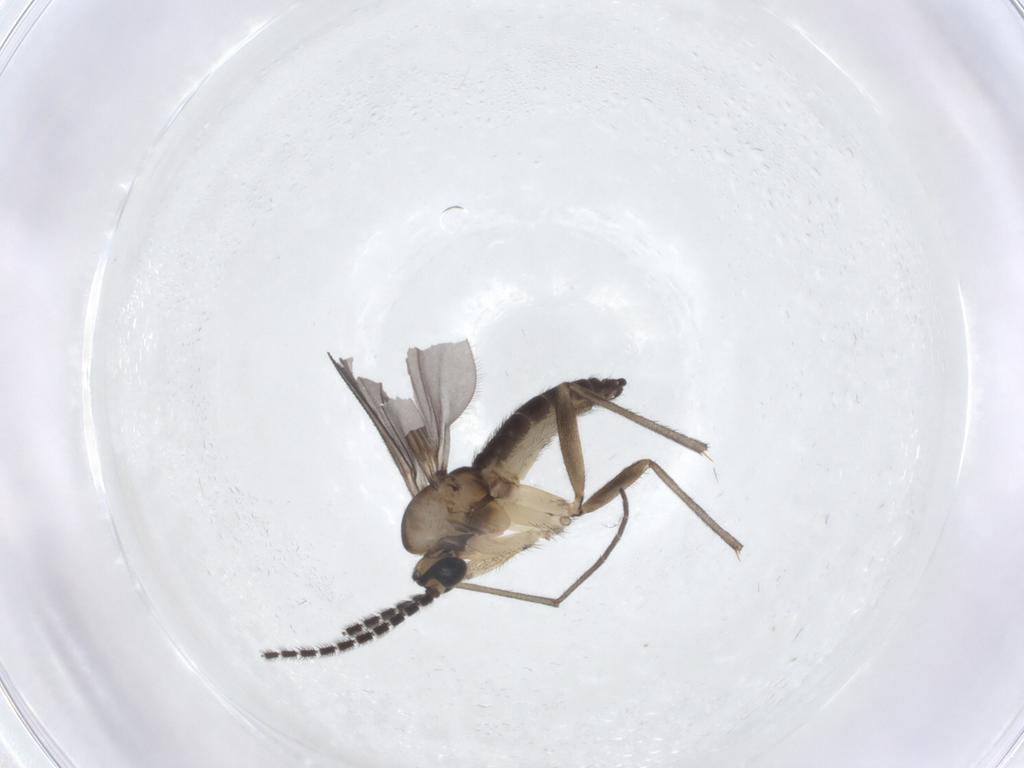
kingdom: Animalia
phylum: Arthropoda
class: Insecta
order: Diptera
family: Sciaridae
